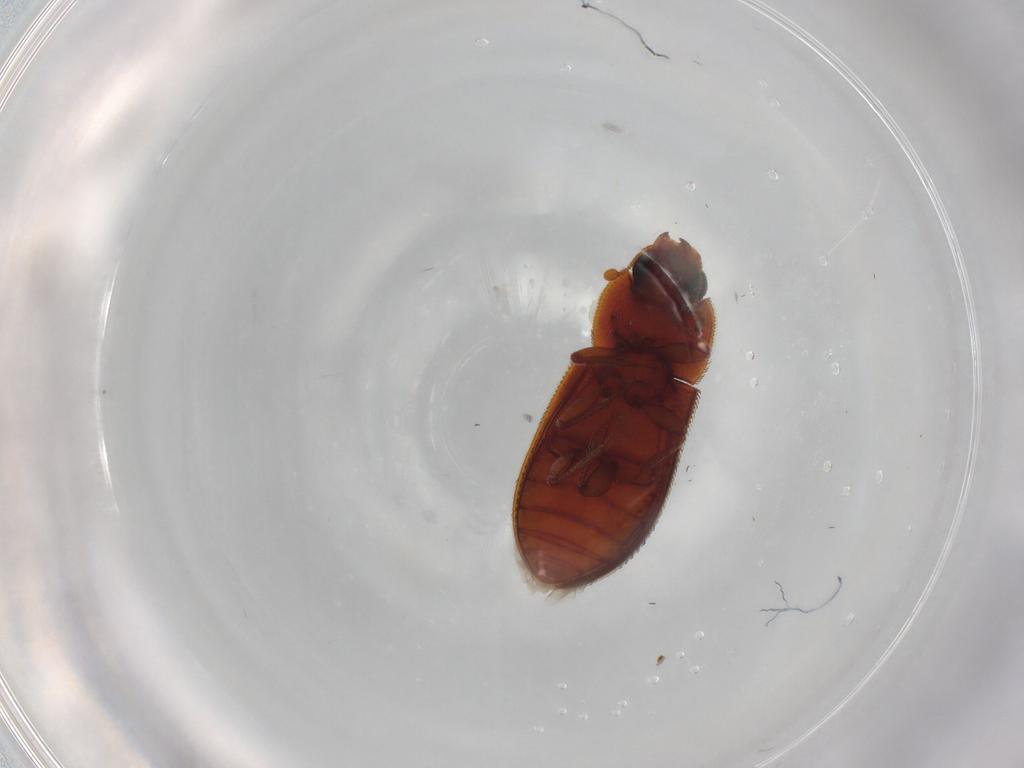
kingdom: Animalia
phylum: Arthropoda
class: Insecta
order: Coleoptera
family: Zopheridae
